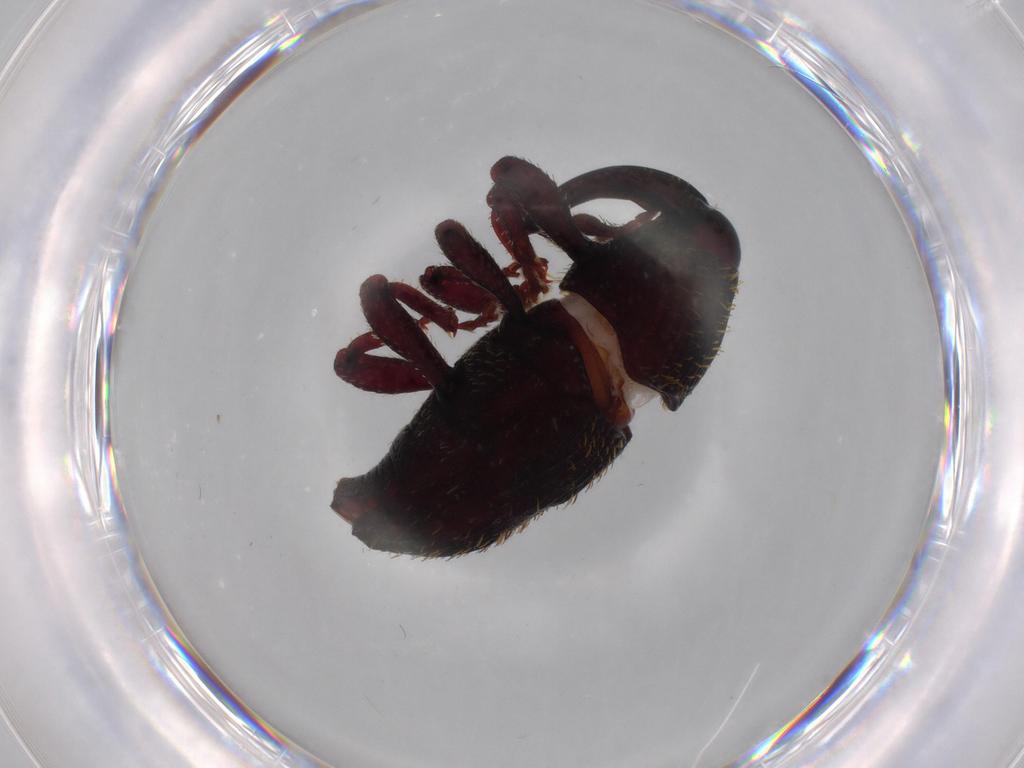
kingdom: Animalia
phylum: Arthropoda
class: Insecta
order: Coleoptera
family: Curculionidae
